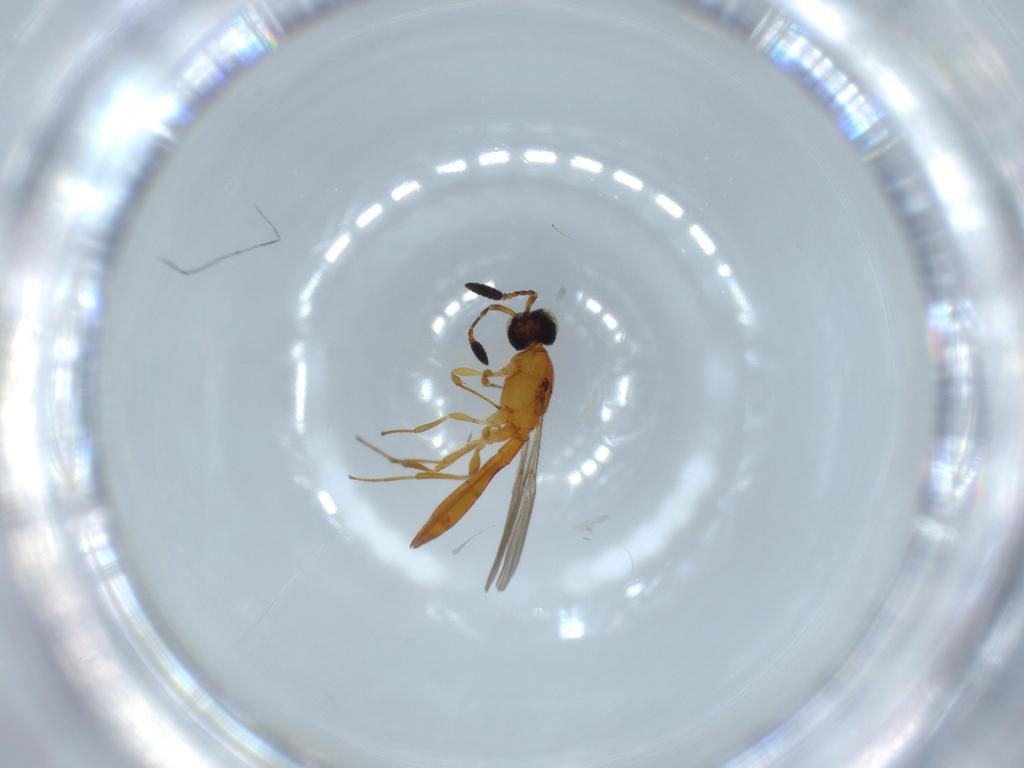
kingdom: Animalia
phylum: Arthropoda
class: Insecta
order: Hymenoptera
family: Scelionidae
